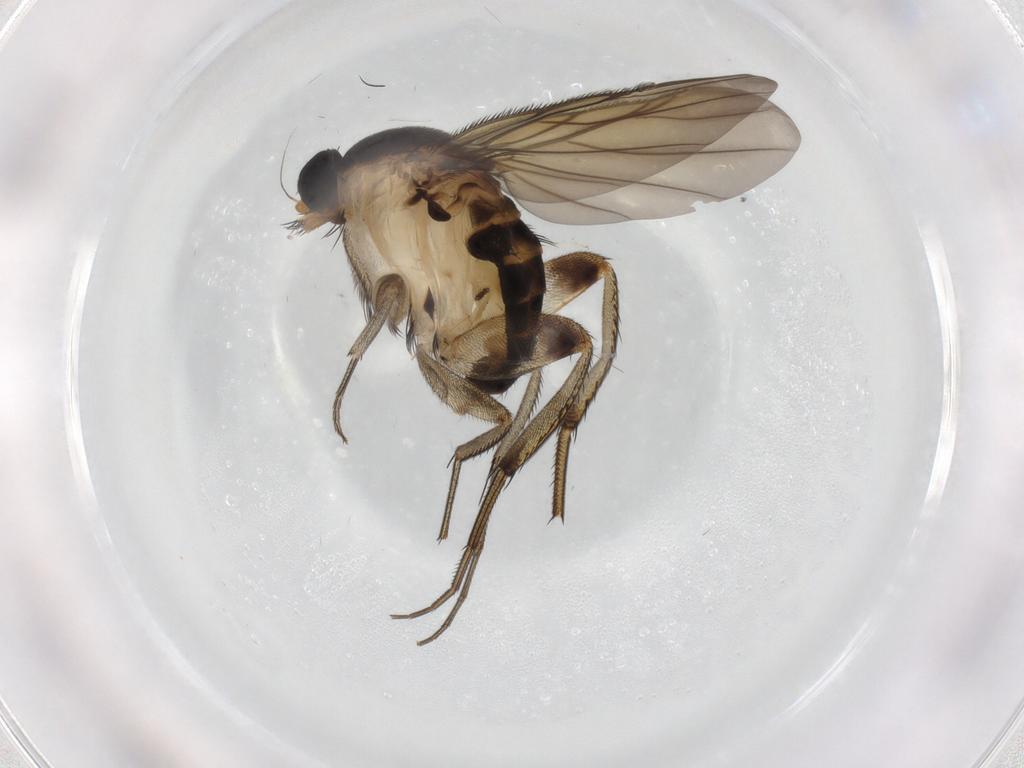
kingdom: Animalia
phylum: Arthropoda
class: Insecta
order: Diptera
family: Phoridae
